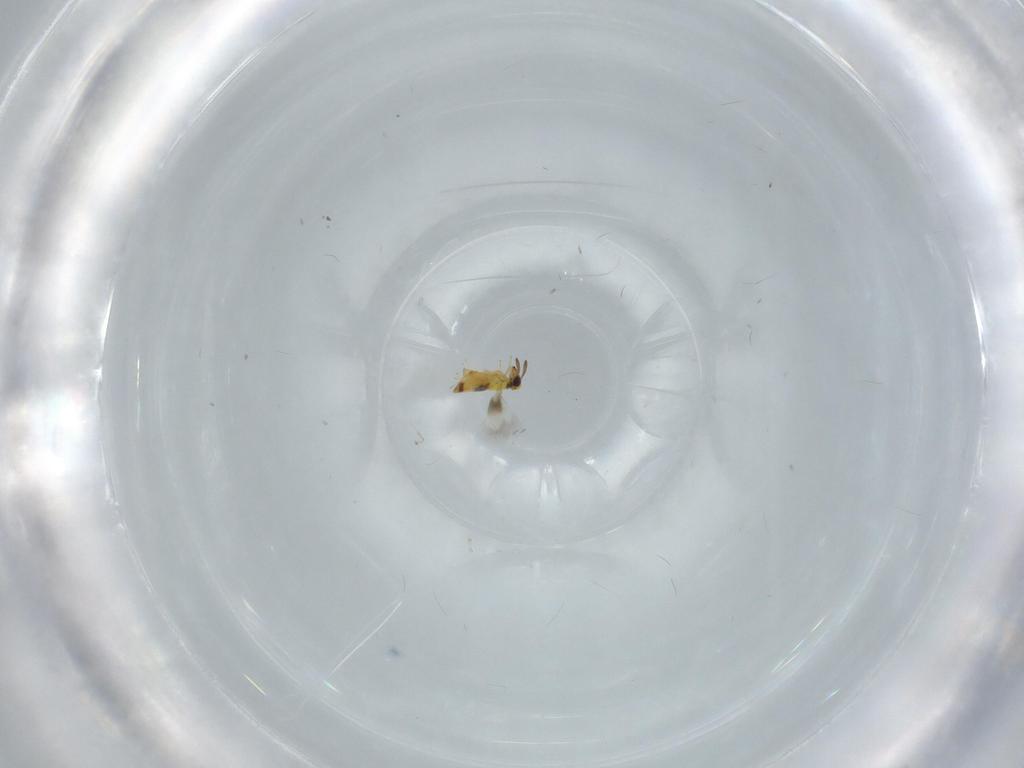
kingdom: Animalia
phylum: Arthropoda
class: Insecta
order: Hymenoptera
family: Signiphoridae
